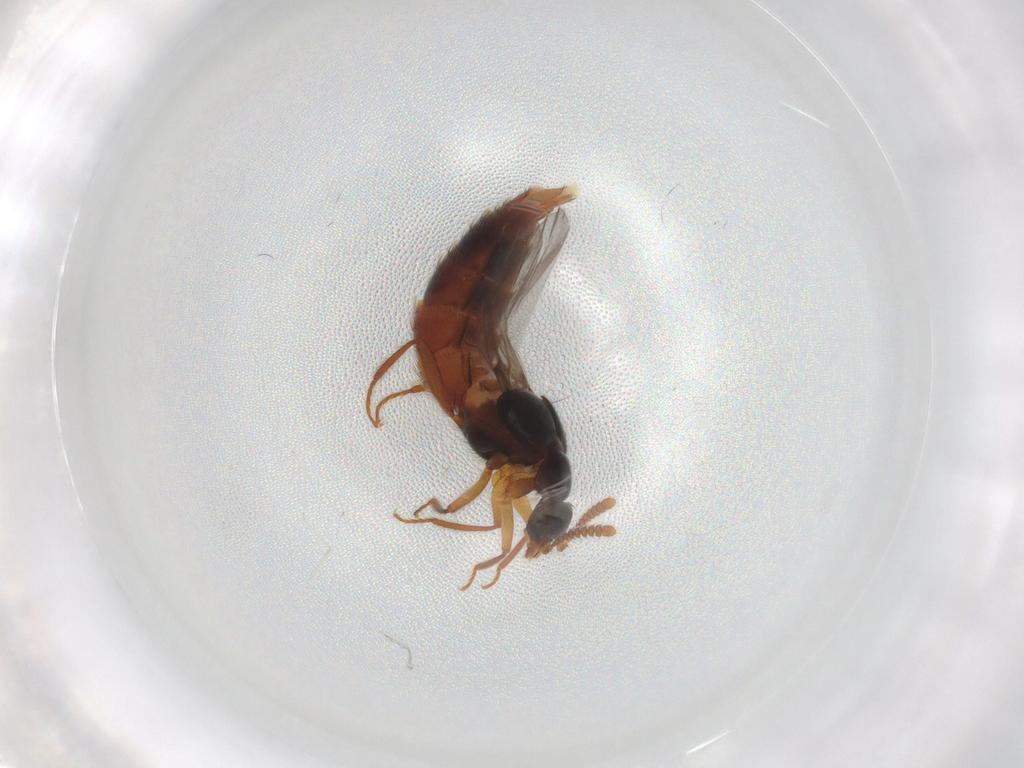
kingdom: Animalia
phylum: Arthropoda
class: Insecta
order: Coleoptera
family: Staphylinidae
